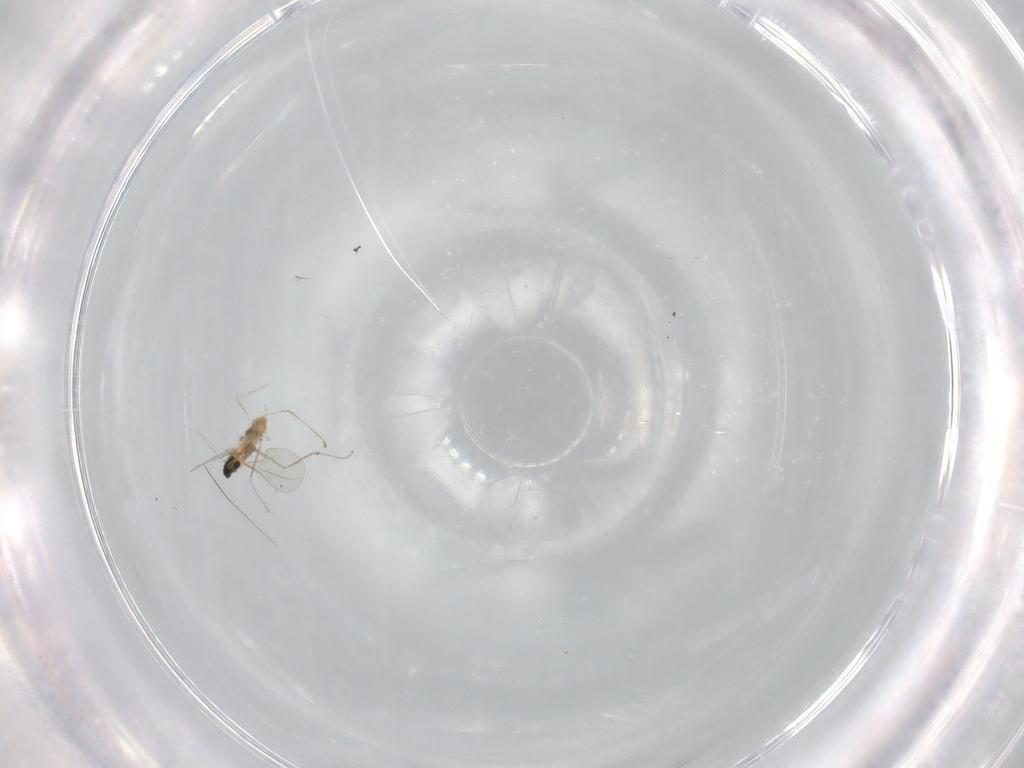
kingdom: Animalia
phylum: Arthropoda
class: Insecta
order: Diptera
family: Cecidomyiidae
